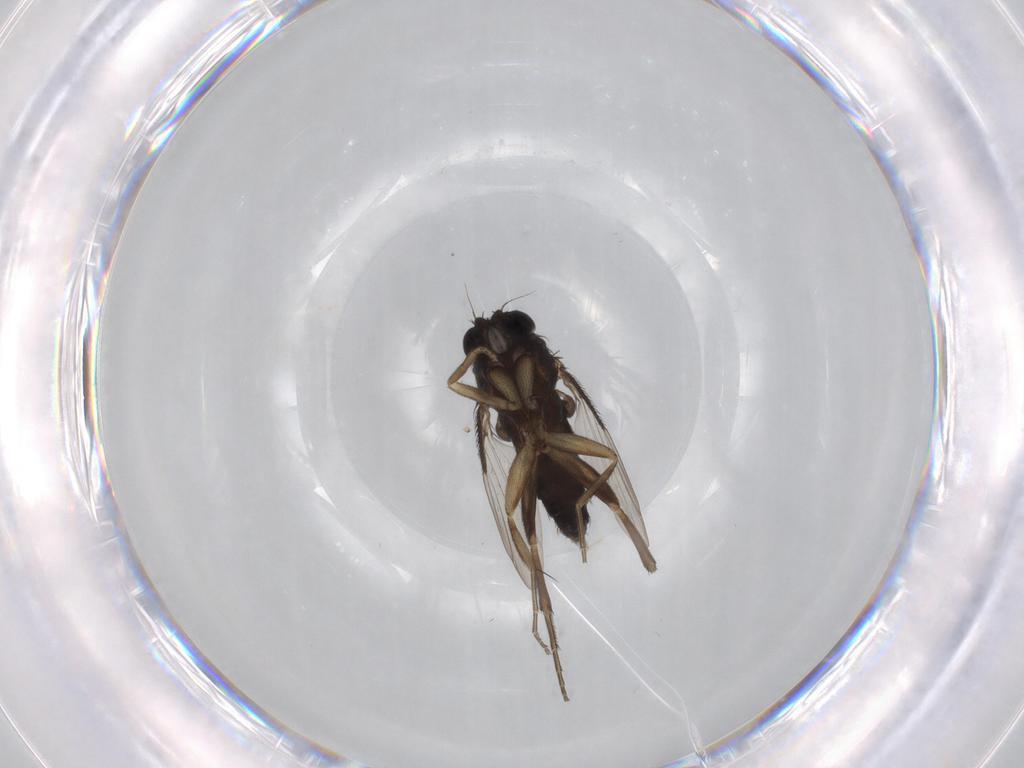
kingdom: Animalia
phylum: Arthropoda
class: Insecta
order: Diptera
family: Phoridae
